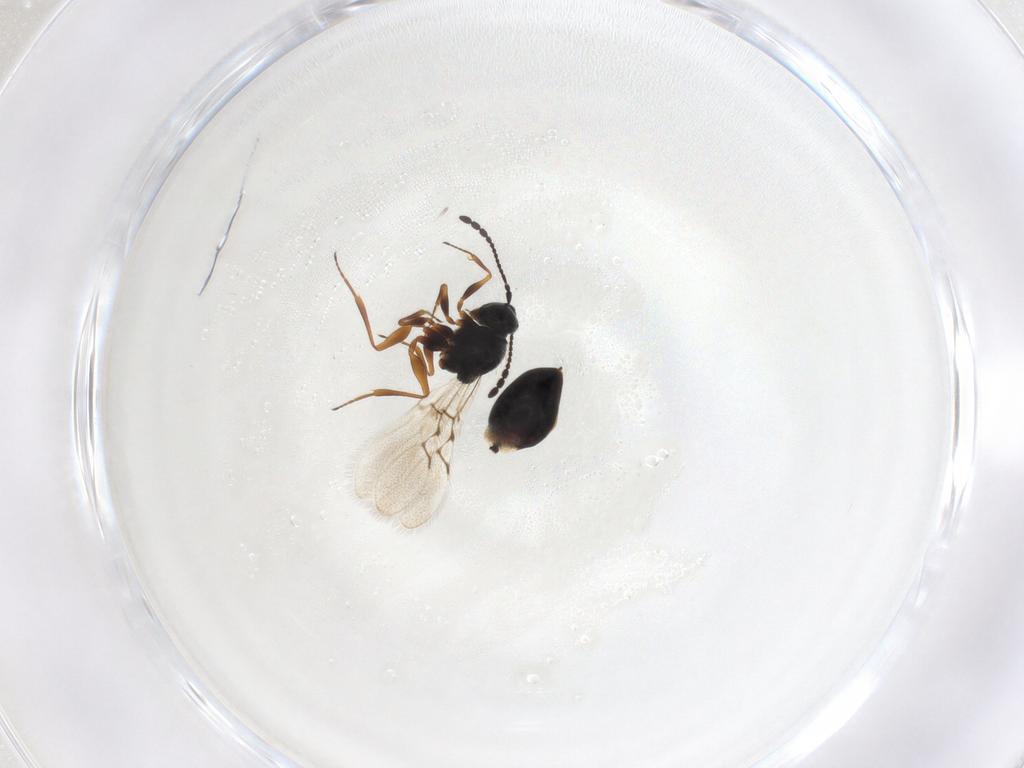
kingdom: Animalia
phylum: Arthropoda
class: Insecta
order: Hymenoptera
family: Figitidae
